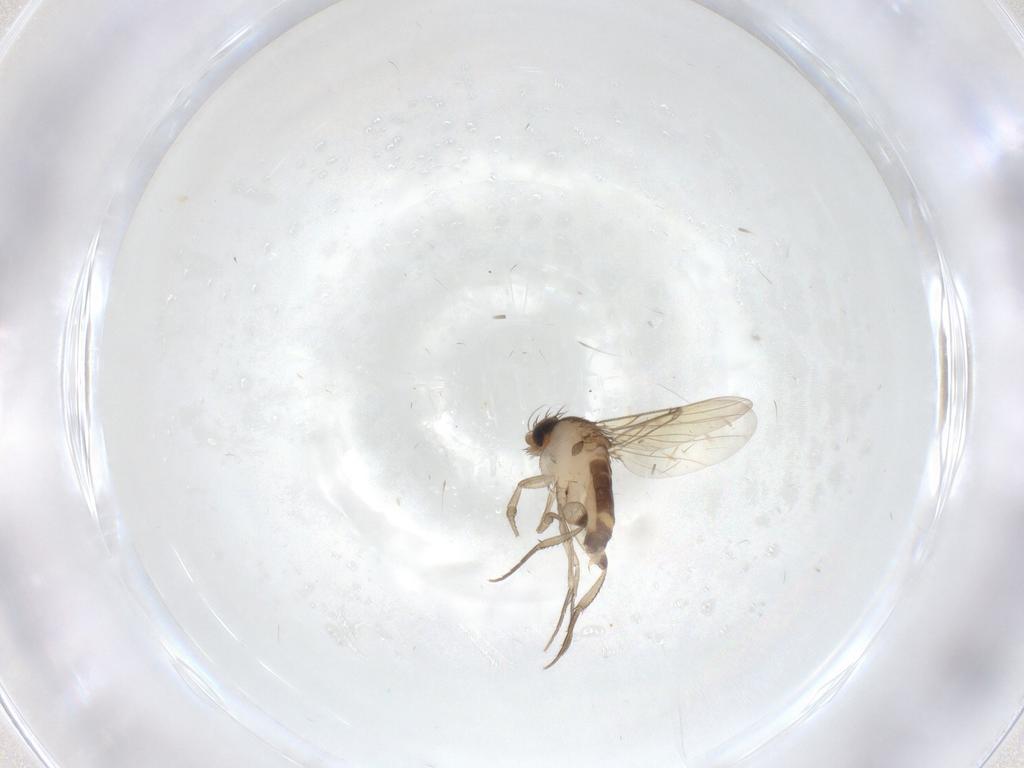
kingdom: Animalia
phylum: Arthropoda
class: Insecta
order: Diptera
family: Phoridae
